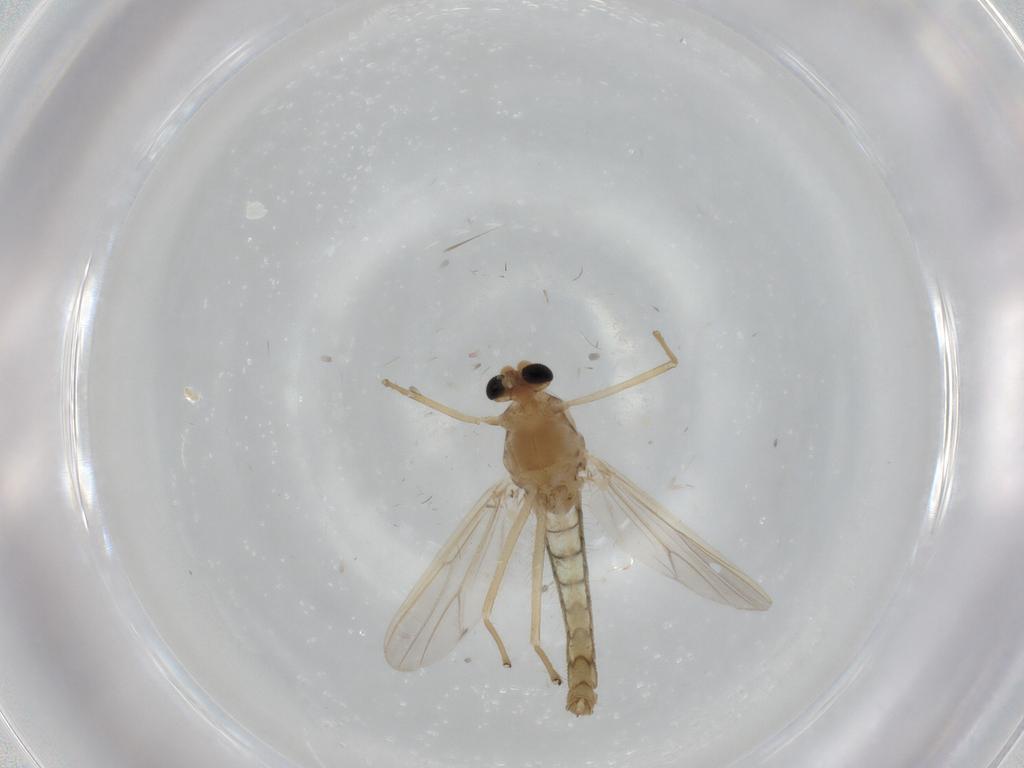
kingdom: Animalia
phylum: Arthropoda
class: Insecta
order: Diptera
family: Chironomidae
